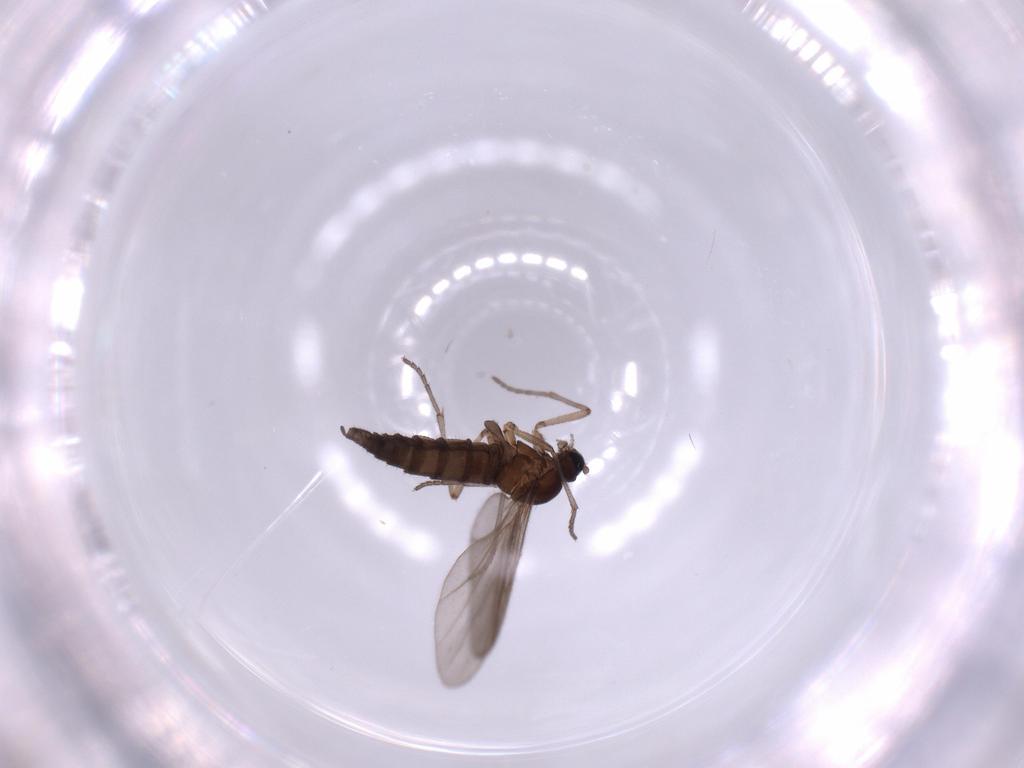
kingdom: Animalia
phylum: Arthropoda
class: Insecta
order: Diptera
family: Sciaridae
